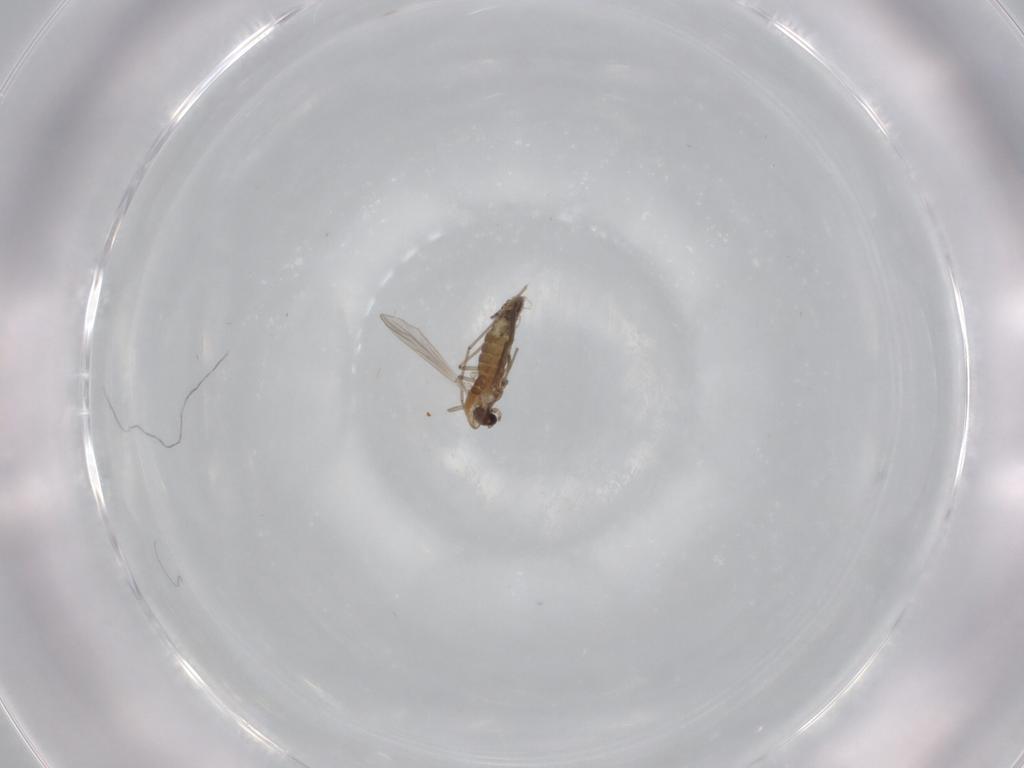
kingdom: Animalia
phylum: Arthropoda
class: Insecta
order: Diptera
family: Chironomidae
